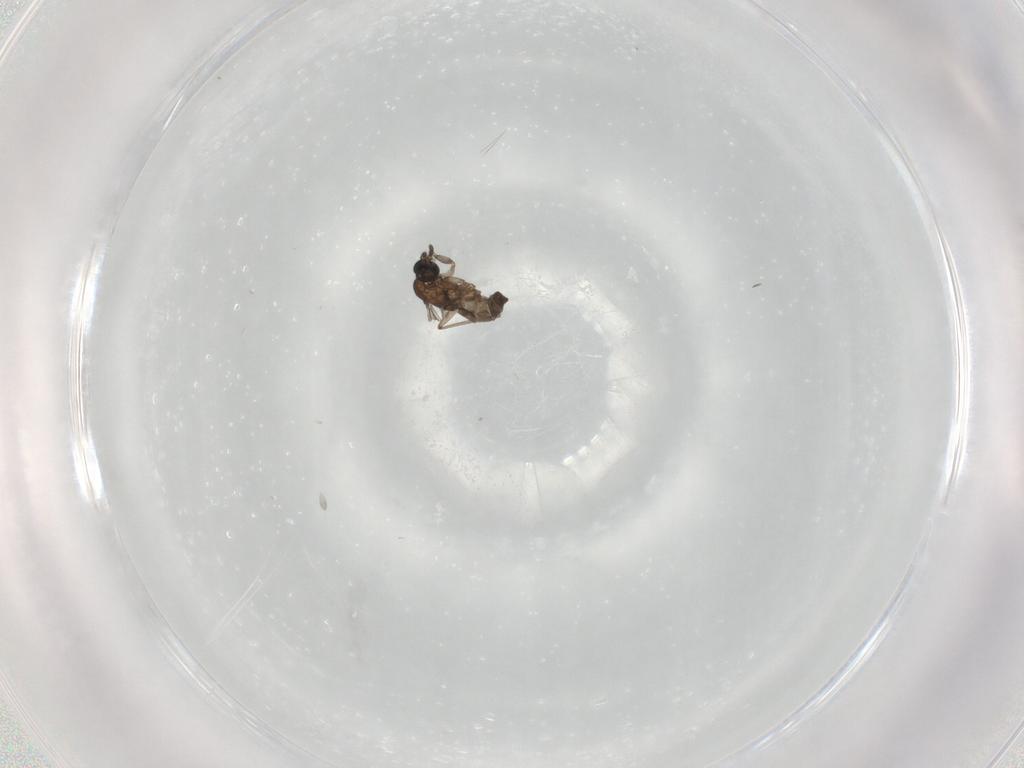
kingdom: Animalia
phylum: Arthropoda
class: Insecta
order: Diptera
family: Sciaridae
